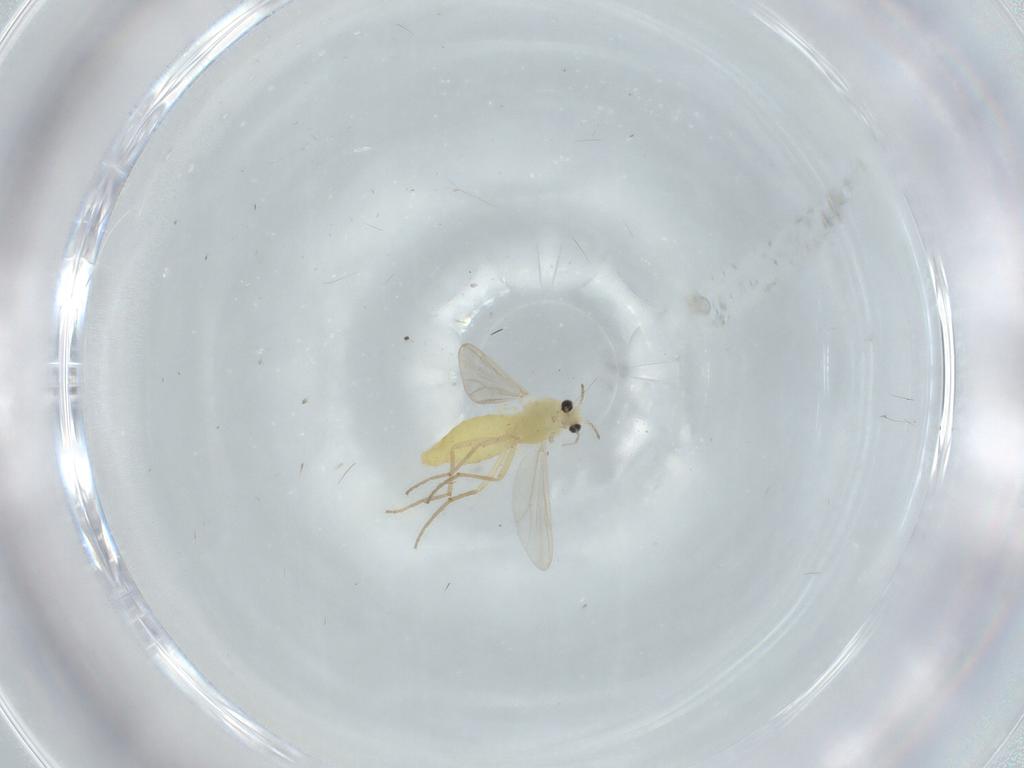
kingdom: Animalia
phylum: Arthropoda
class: Insecta
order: Diptera
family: Chironomidae
